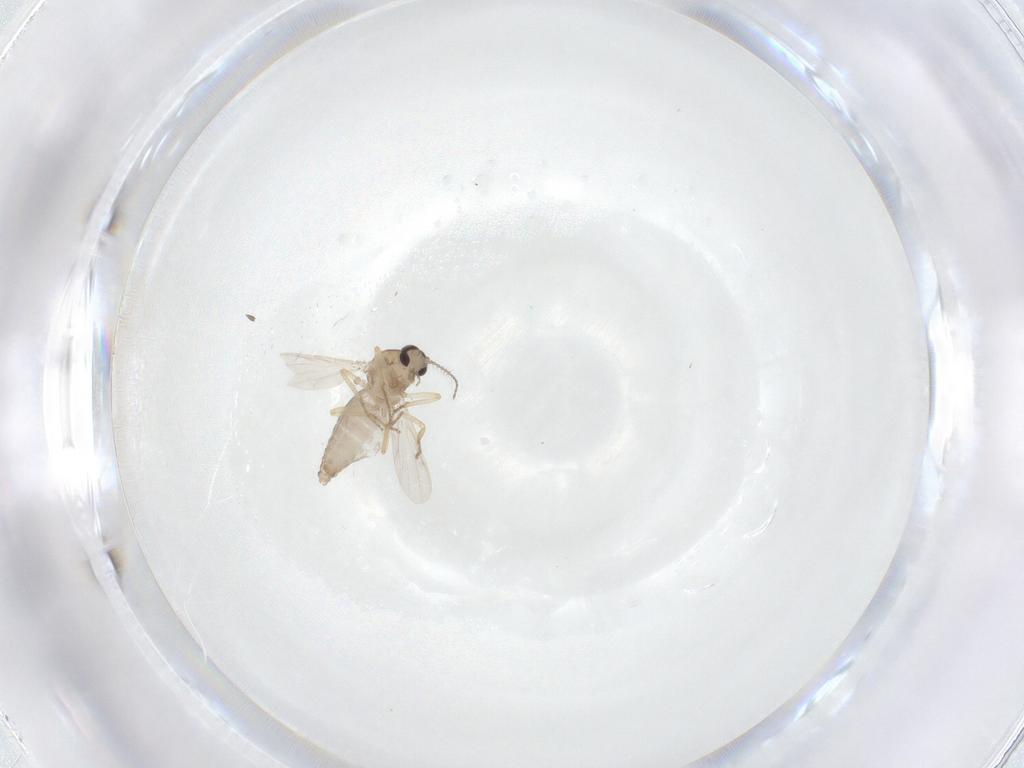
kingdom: Animalia
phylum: Arthropoda
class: Insecta
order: Diptera
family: Ceratopogonidae
